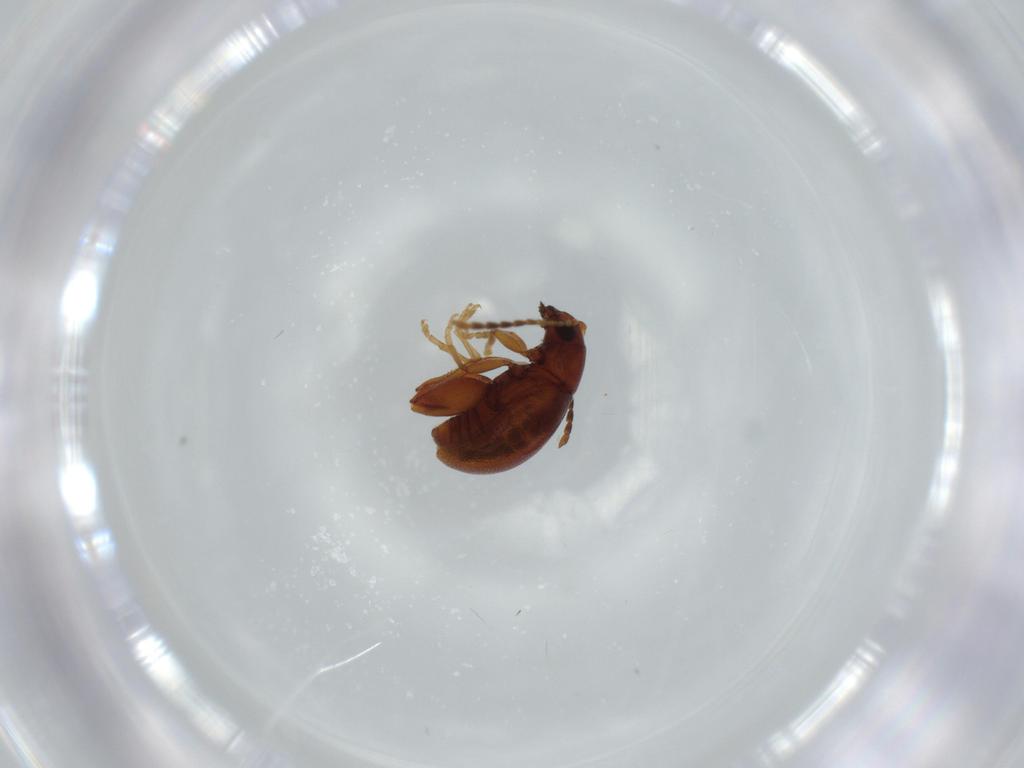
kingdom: Animalia
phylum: Arthropoda
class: Insecta
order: Coleoptera
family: Chrysomelidae
